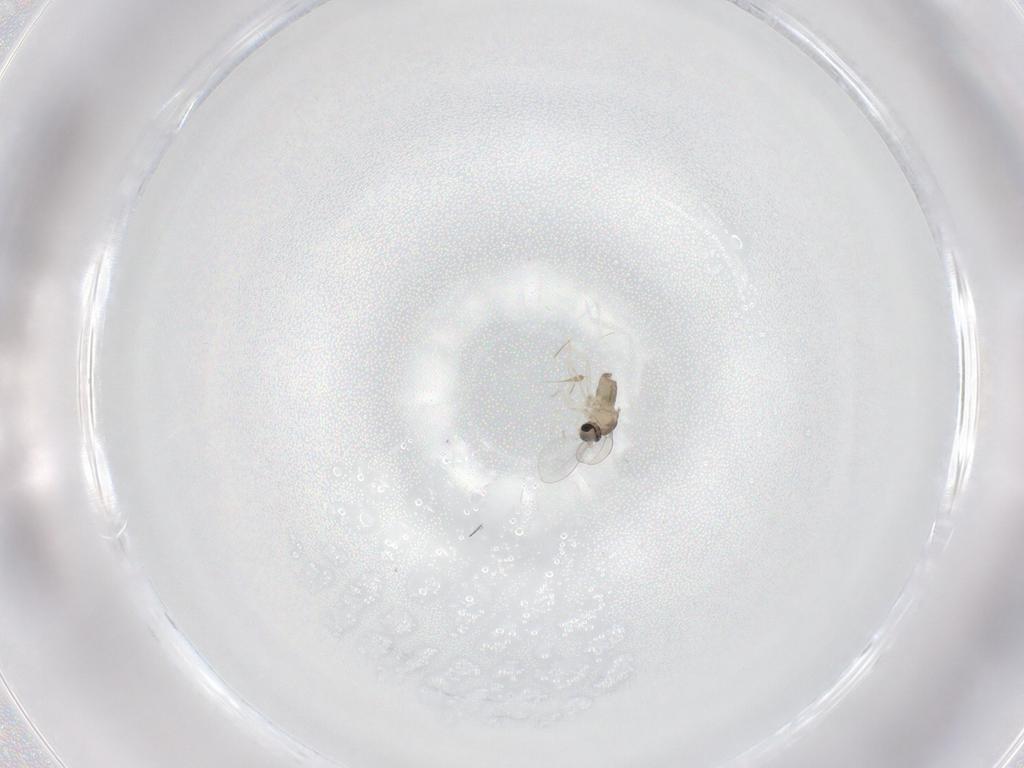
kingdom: Animalia
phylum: Arthropoda
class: Insecta
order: Diptera
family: Cecidomyiidae
